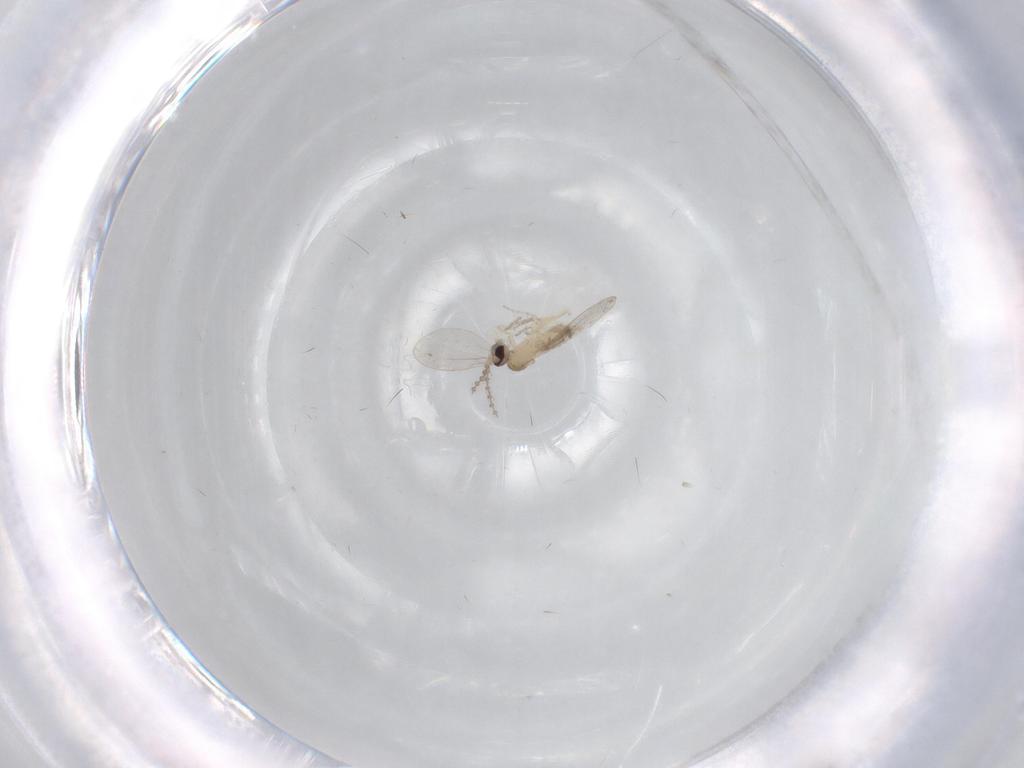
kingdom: Animalia
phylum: Arthropoda
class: Insecta
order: Diptera
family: Cecidomyiidae
